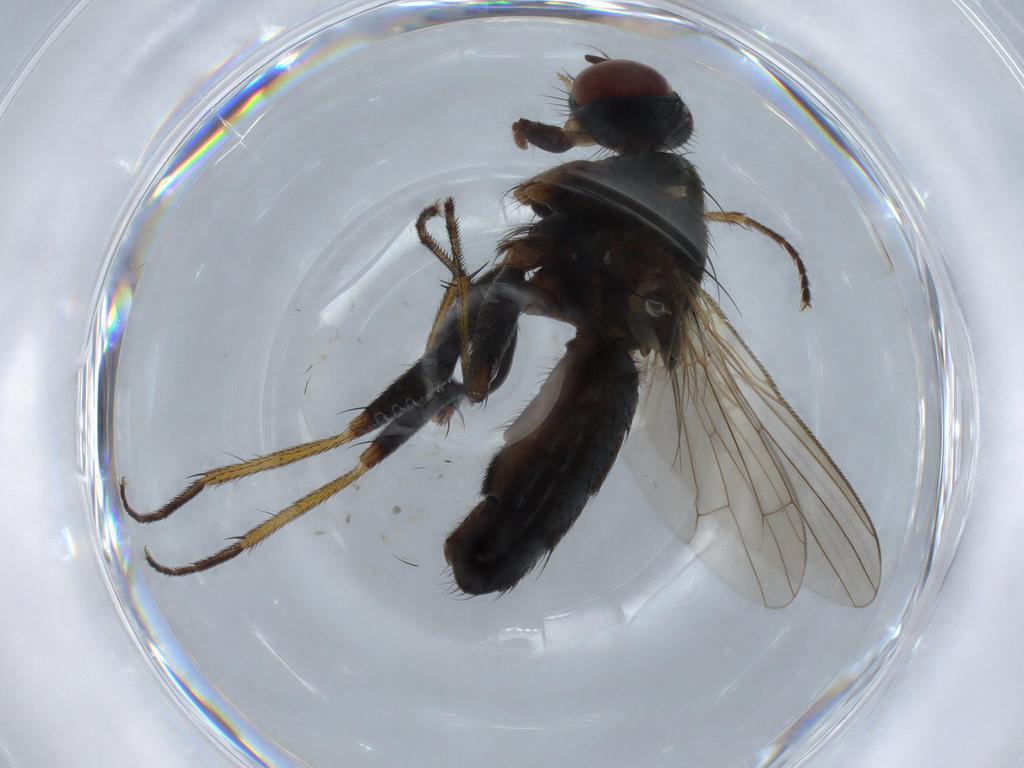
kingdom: Animalia
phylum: Arthropoda
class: Insecta
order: Diptera
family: Muscidae
